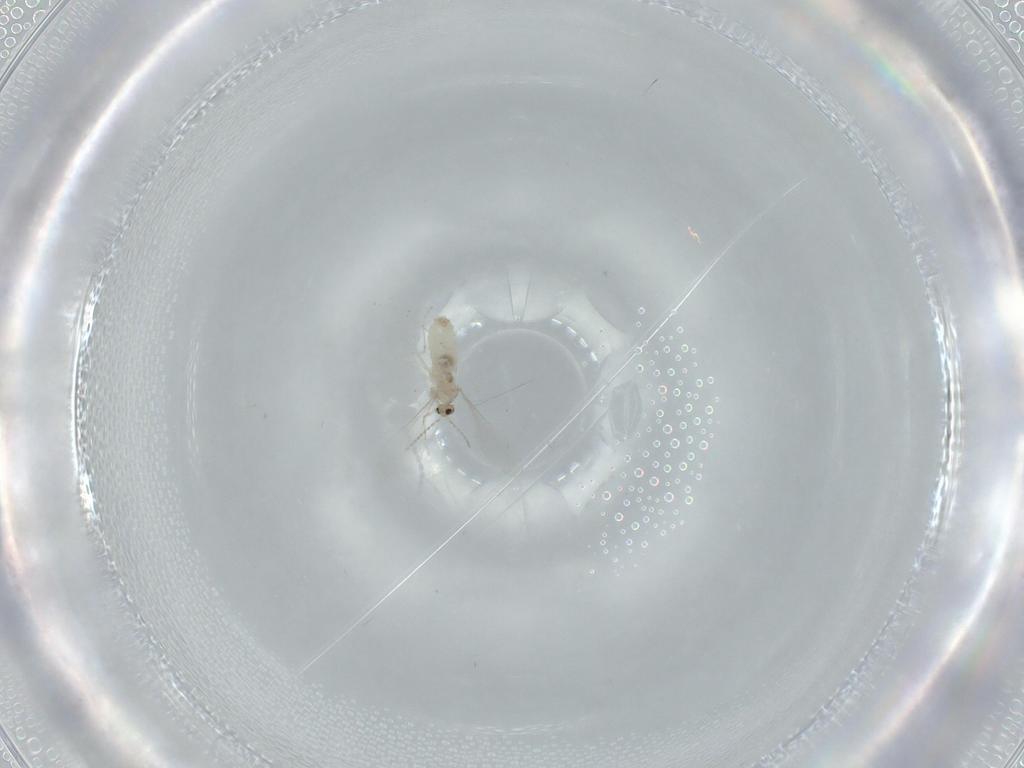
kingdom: Animalia
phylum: Arthropoda
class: Insecta
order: Diptera
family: Cecidomyiidae
